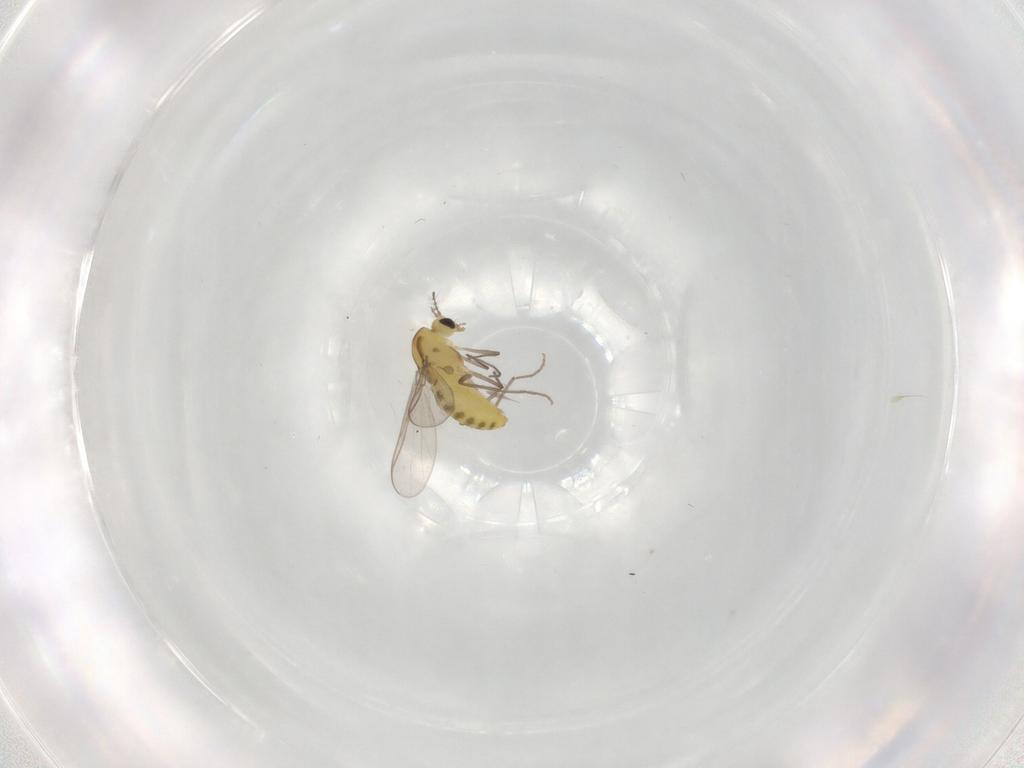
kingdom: Animalia
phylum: Arthropoda
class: Insecta
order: Diptera
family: Chironomidae
